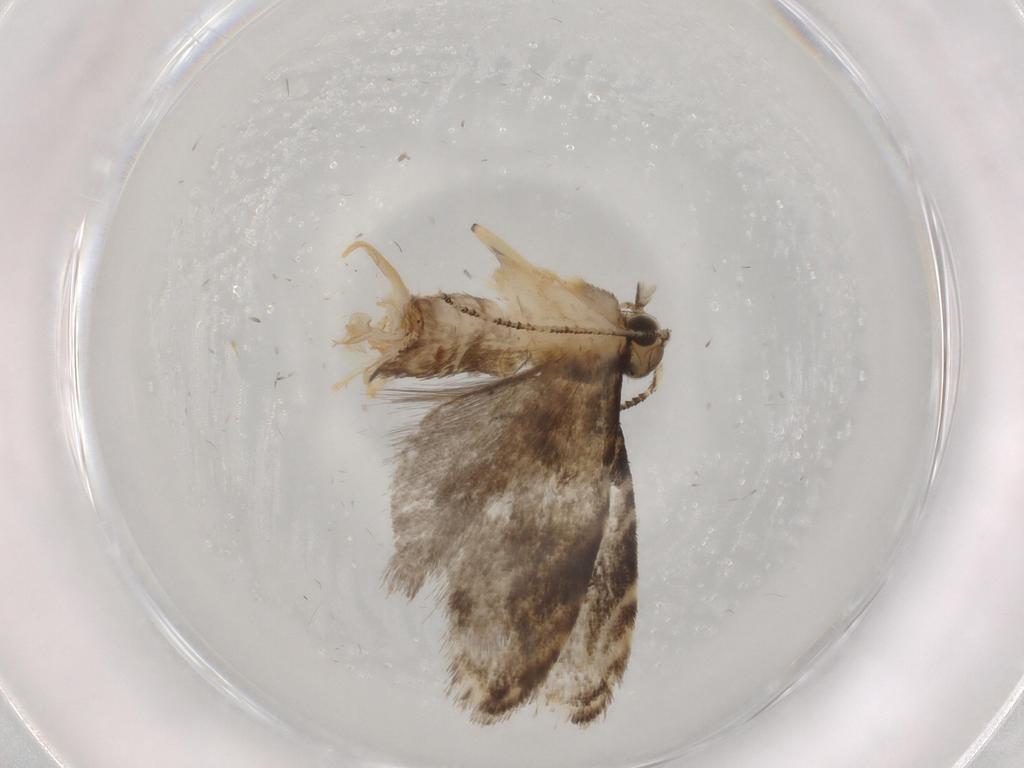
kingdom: Animalia
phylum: Arthropoda
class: Insecta
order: Lepidoptera
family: Tineidae
